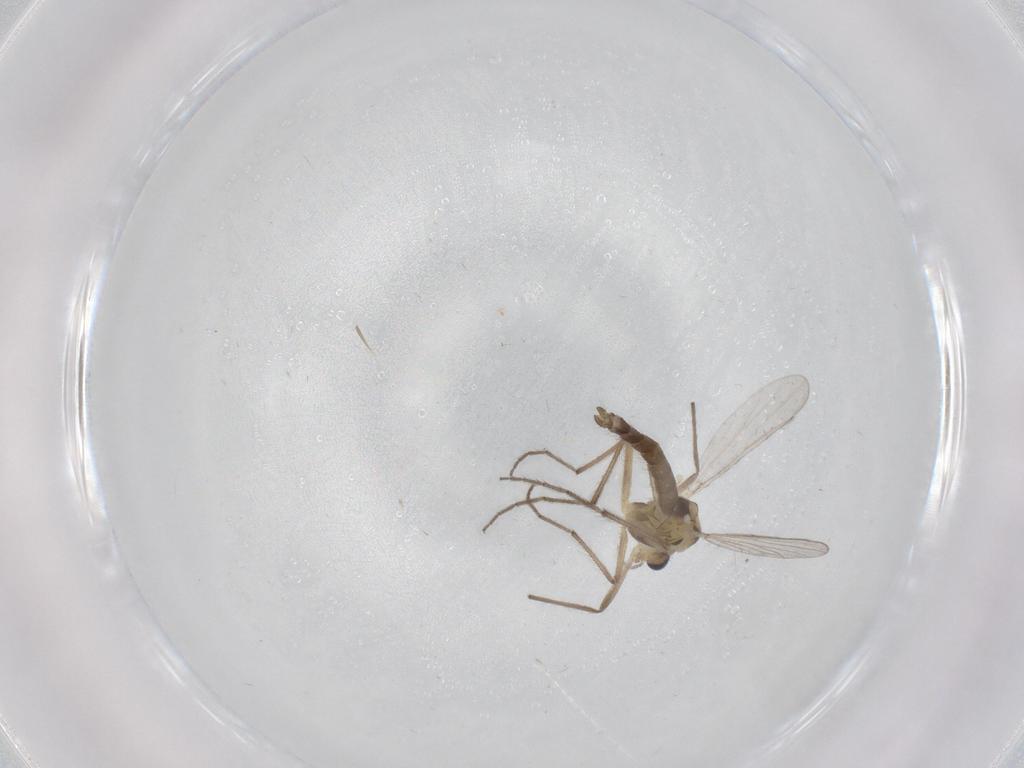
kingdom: Animalia
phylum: Arthropoda
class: Insecta
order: Diptera
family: Chironomidae
